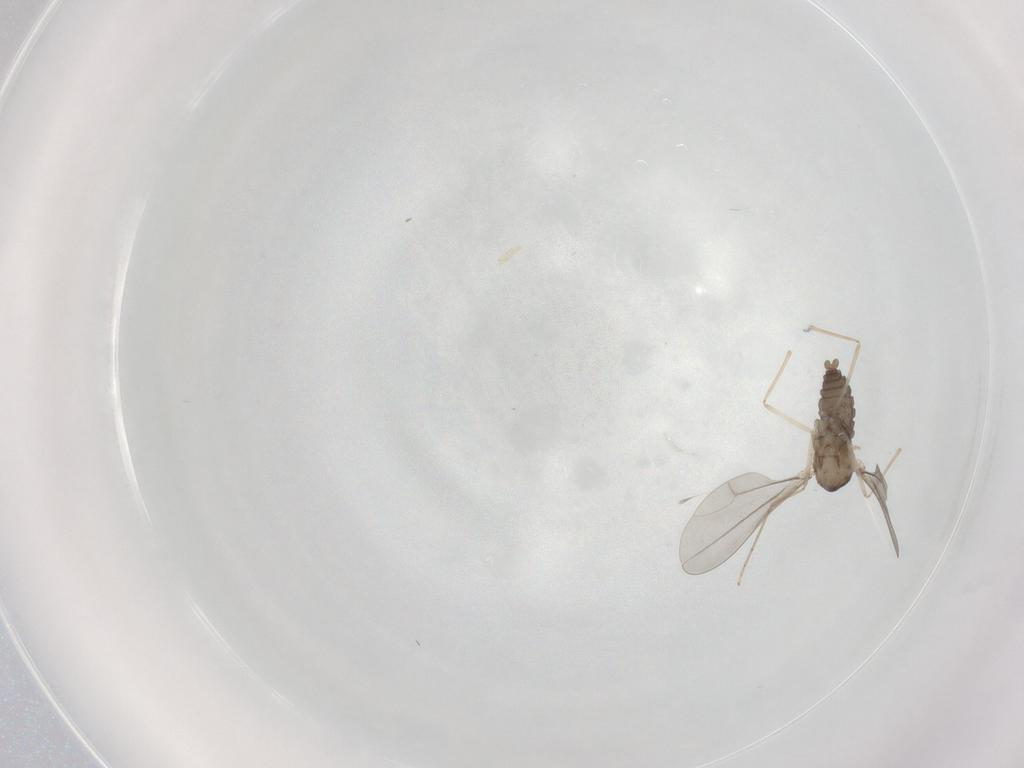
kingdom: Animalia
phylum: Arthropoda
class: Insecta
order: Diptera
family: Cecidomyiidae
